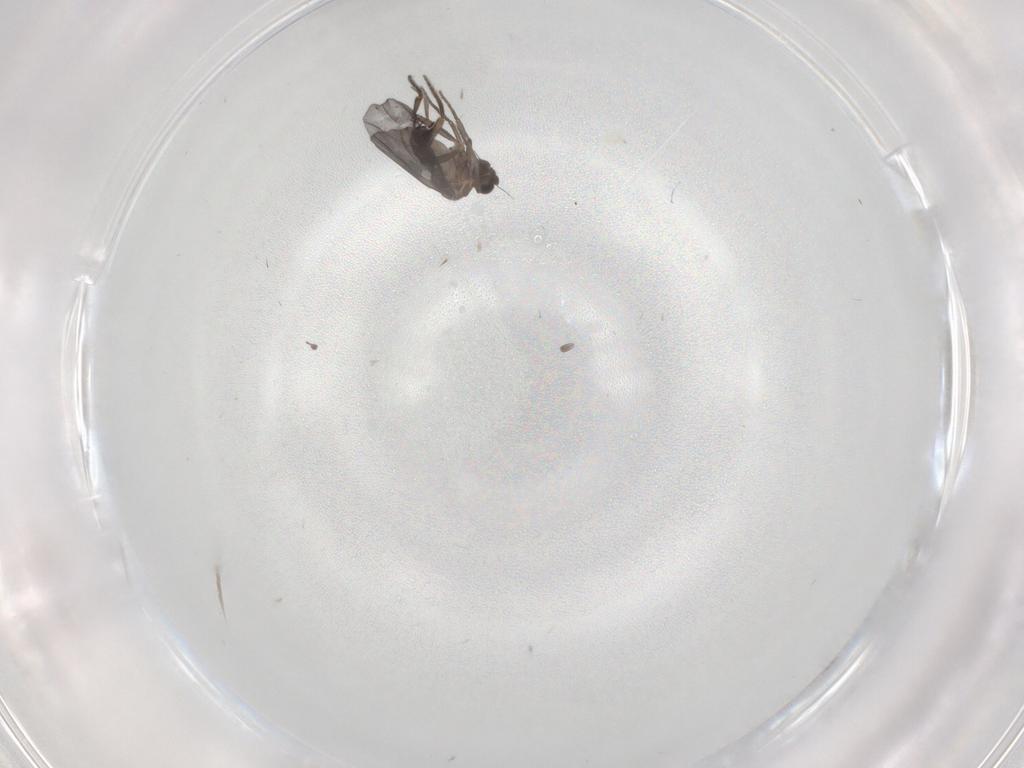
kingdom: Animalia
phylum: Arthropoda
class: Insecta
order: Diptera
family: Phoridae
